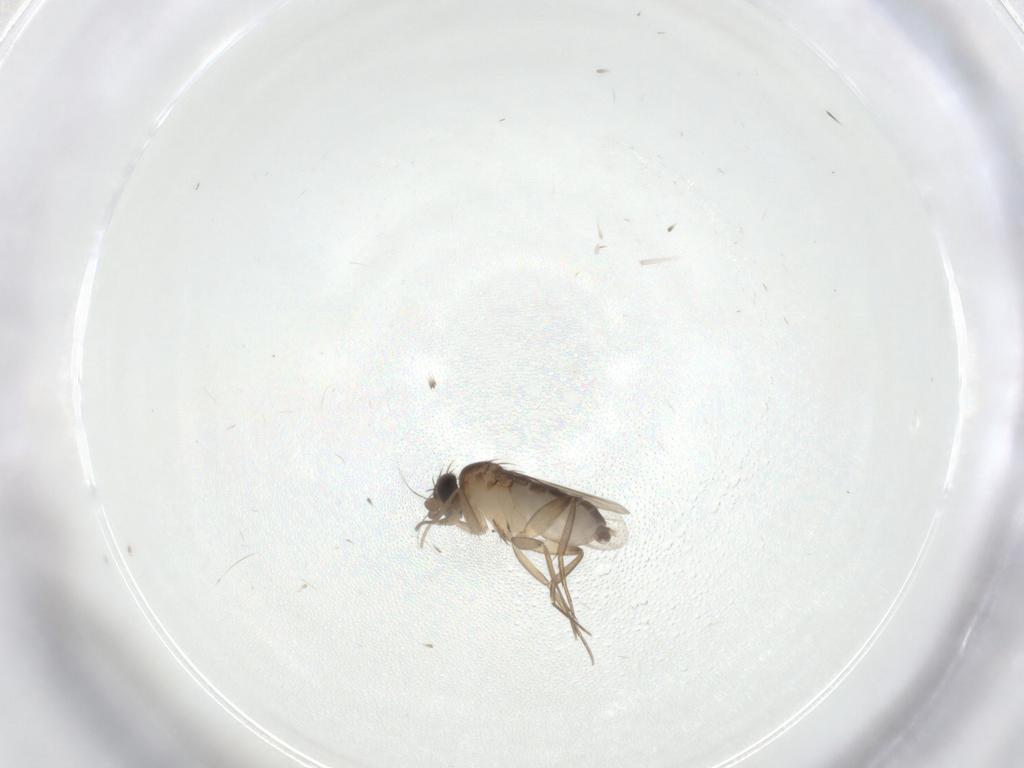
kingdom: Animalia
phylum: Arthropoda
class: Insecta
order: Diptera
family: Phoridae
